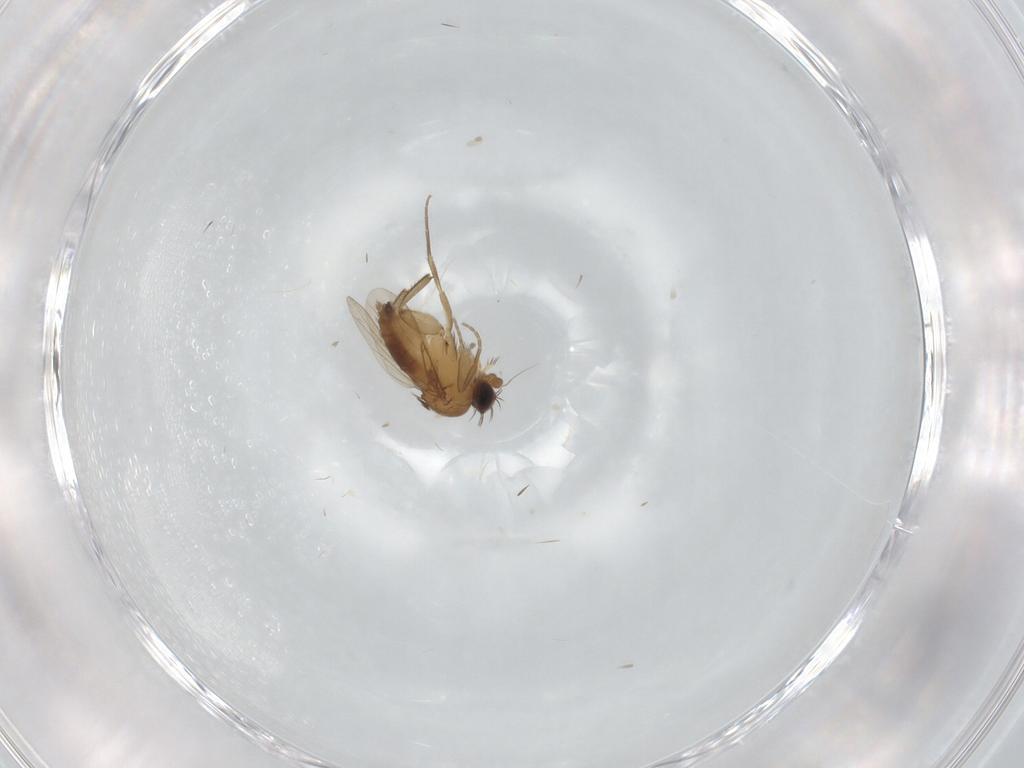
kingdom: Animalia
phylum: Arthropoda
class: Insecta
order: Diptera
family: Phoridae
